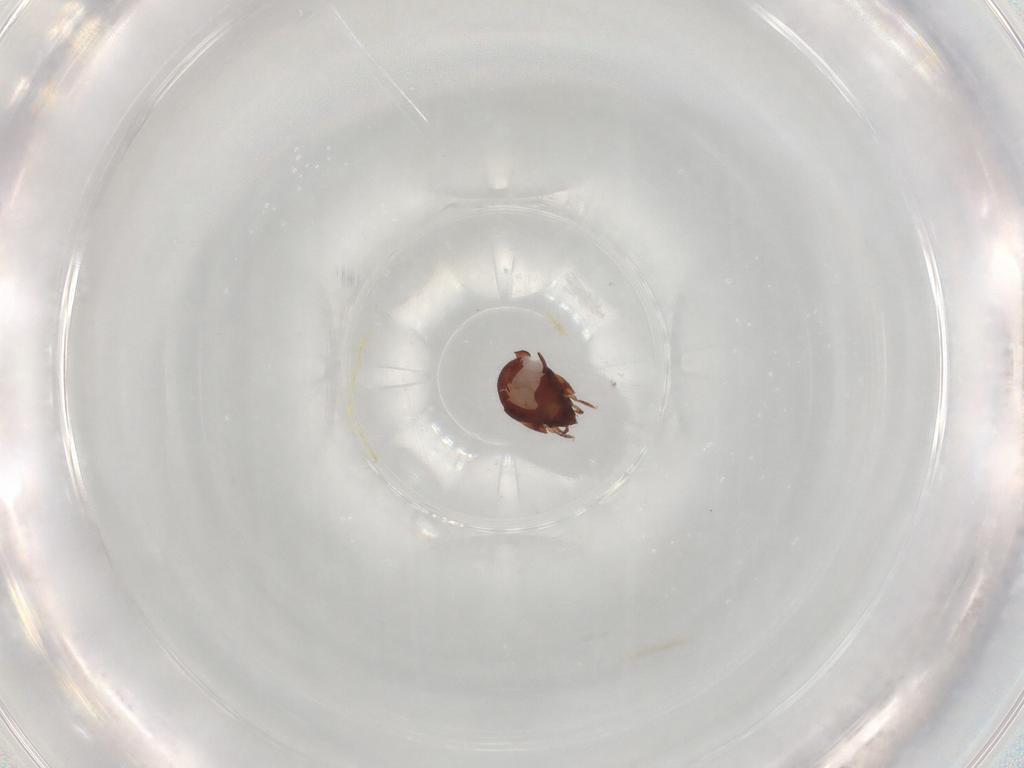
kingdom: Animalia
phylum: Arthropoda
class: Arachnida
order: Sarcoptiformes
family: Humerobatidae
